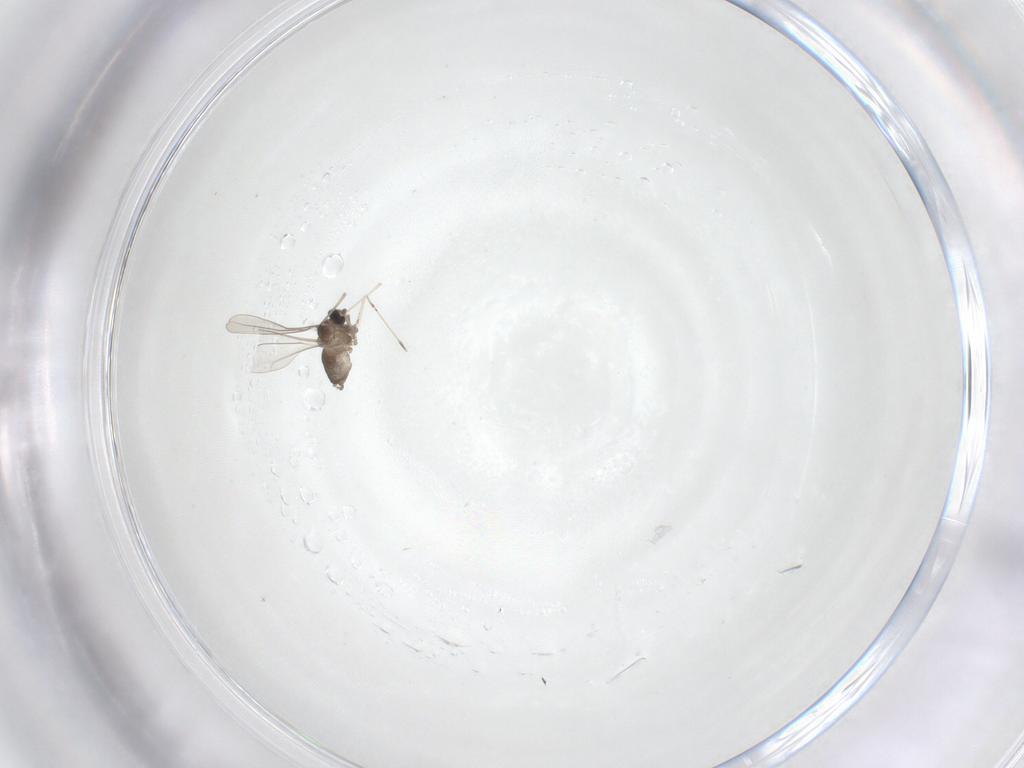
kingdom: Animalia
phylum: Arthropoda
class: Insecta
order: Diptera
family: Cecidomyiidae
